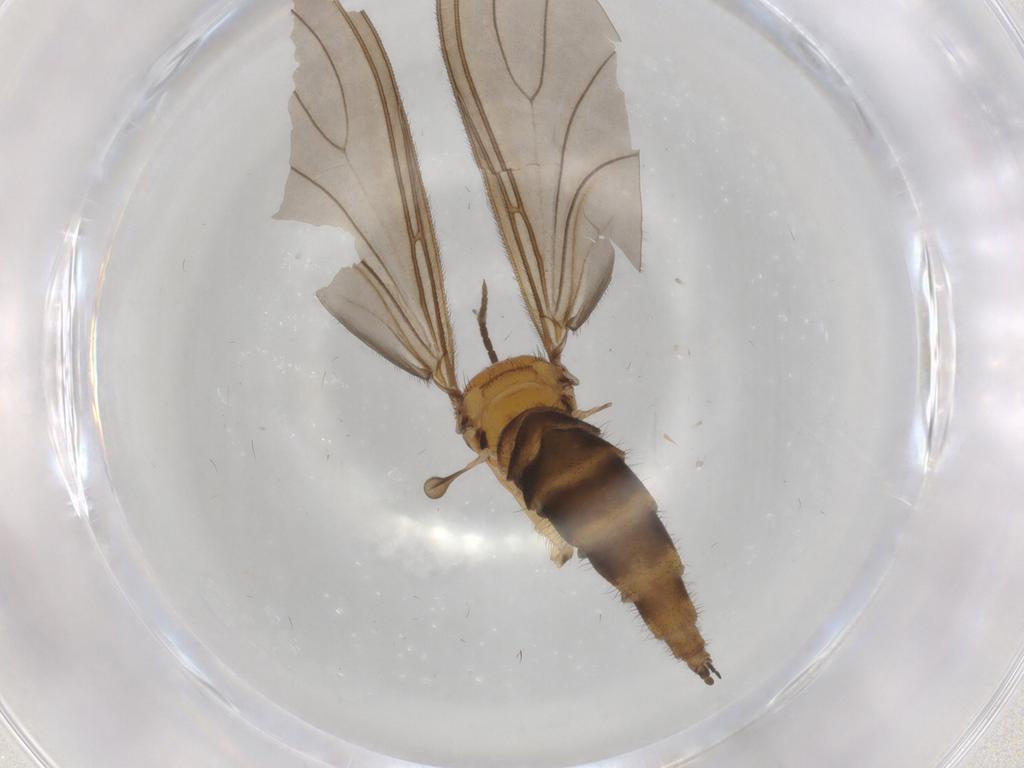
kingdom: Animalia
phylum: Arthropoda
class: Insecta
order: Diptera
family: Sciaridae
